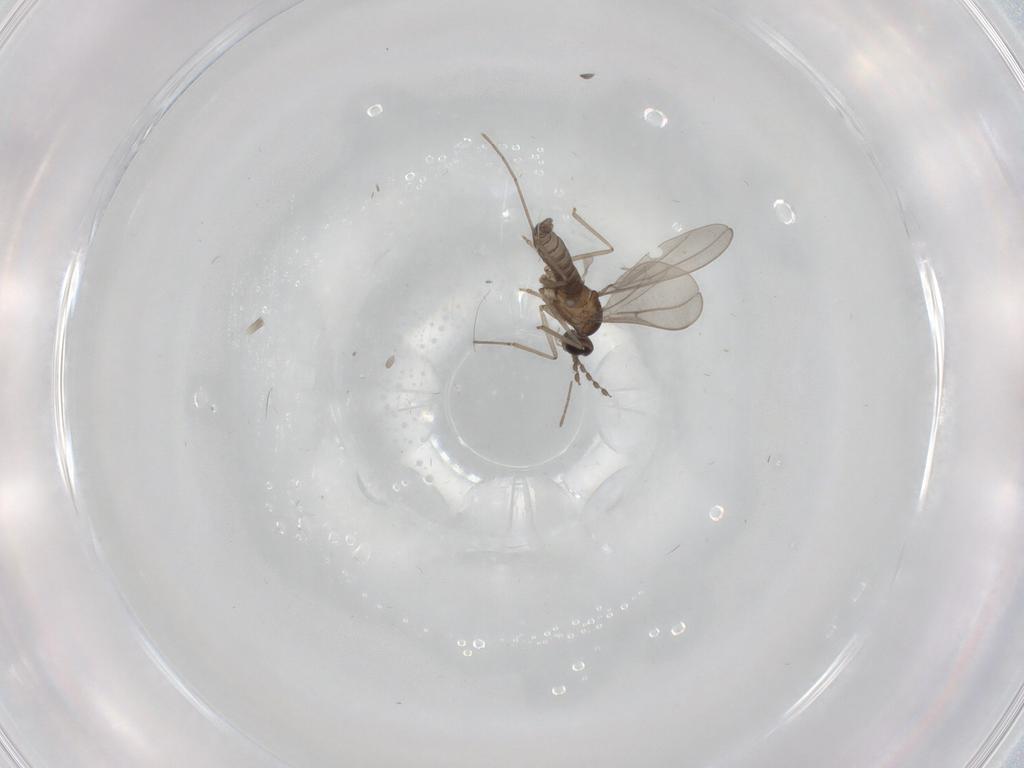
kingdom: Animalia
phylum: Arthropoda
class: Insecta
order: Diptera
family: Cecidomyiidae
